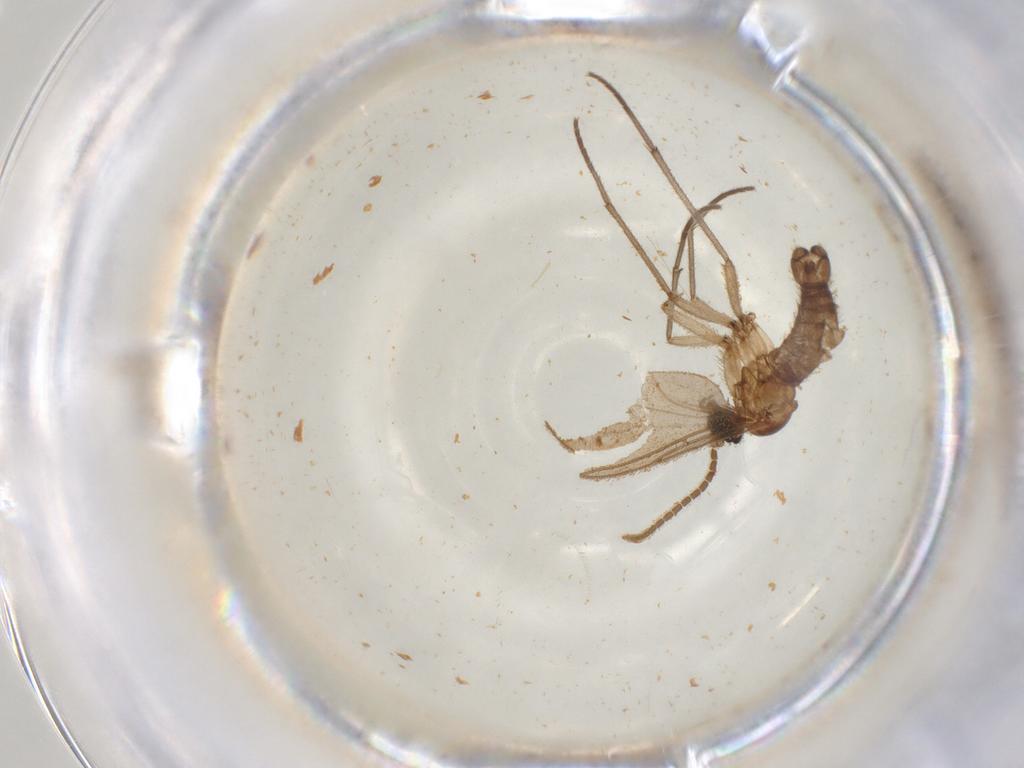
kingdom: Animalia
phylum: Arthropoda
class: Insecta
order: Diptera
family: Sciaridae
